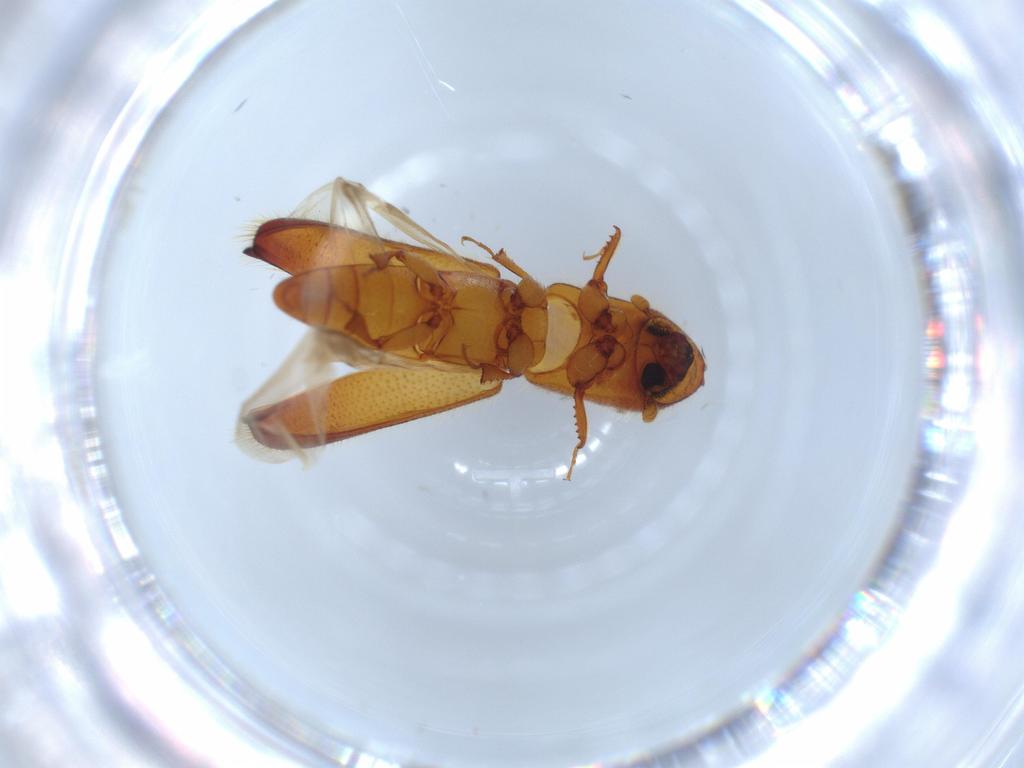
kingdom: Animalia
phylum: Arthropoda
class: Insecta
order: Coleoptera
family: Curculionidae
